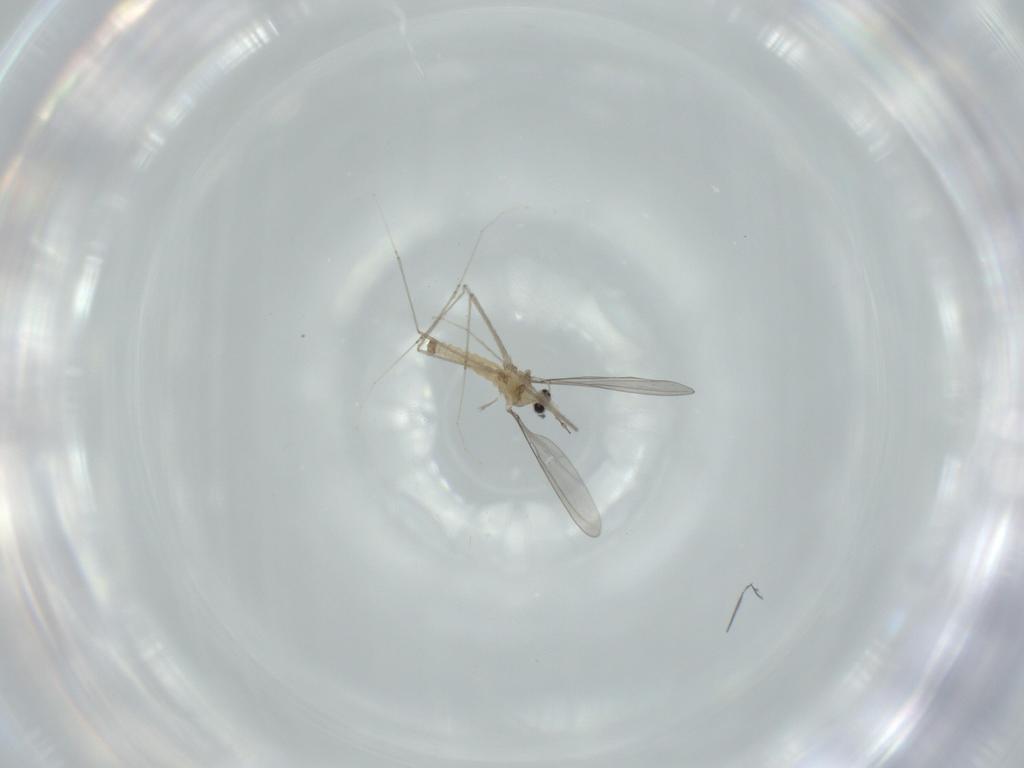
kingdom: Animalia
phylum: Arthropoda
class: Insecta
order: Diptera
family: Cecidomyiidae
